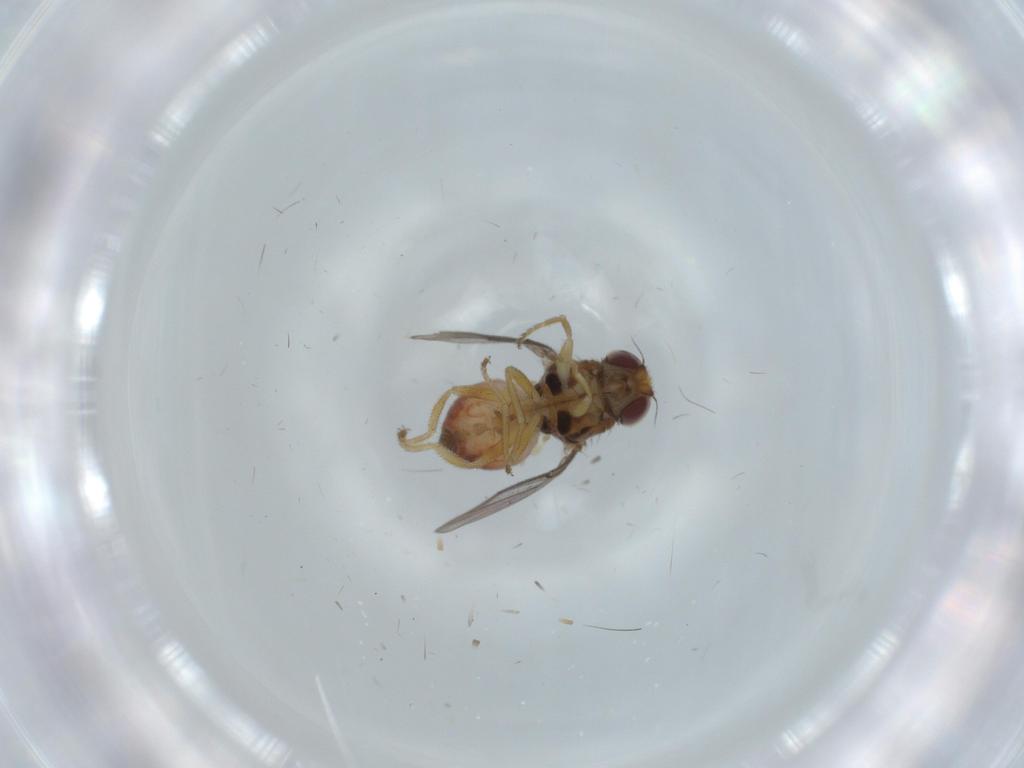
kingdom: Animalia
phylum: Arthropoda
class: Insecta
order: Diptera
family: Chloropidae
